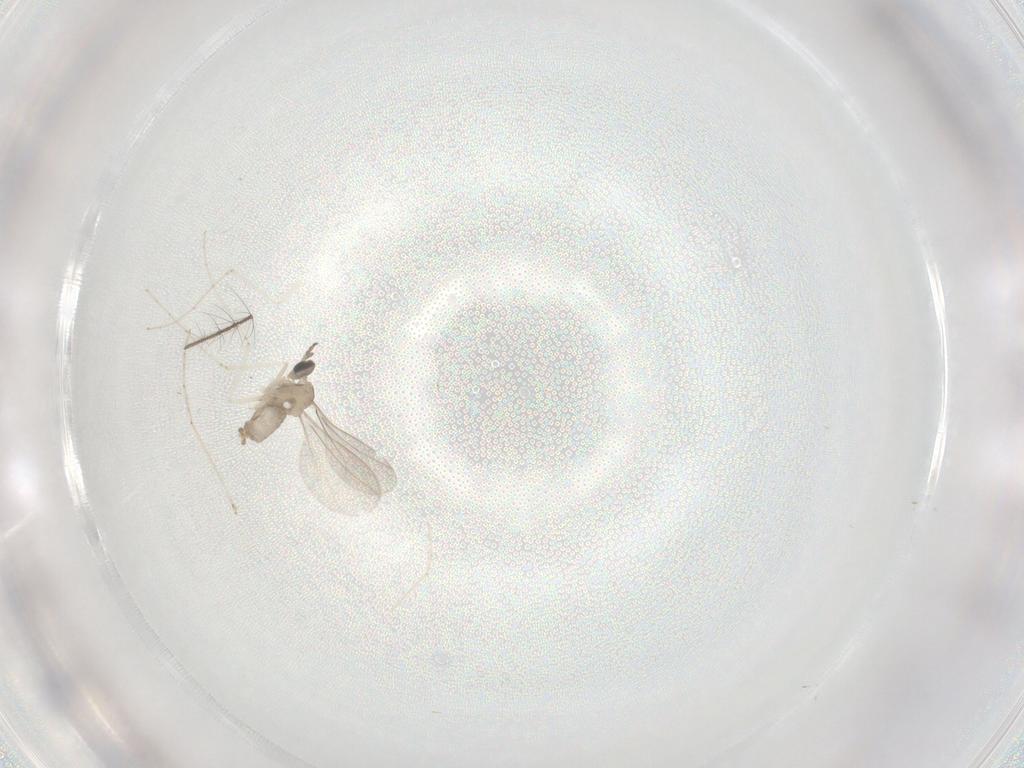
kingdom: Animalia
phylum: Arthropoda
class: Insecta
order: Diptera
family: Cecidomyiidae
